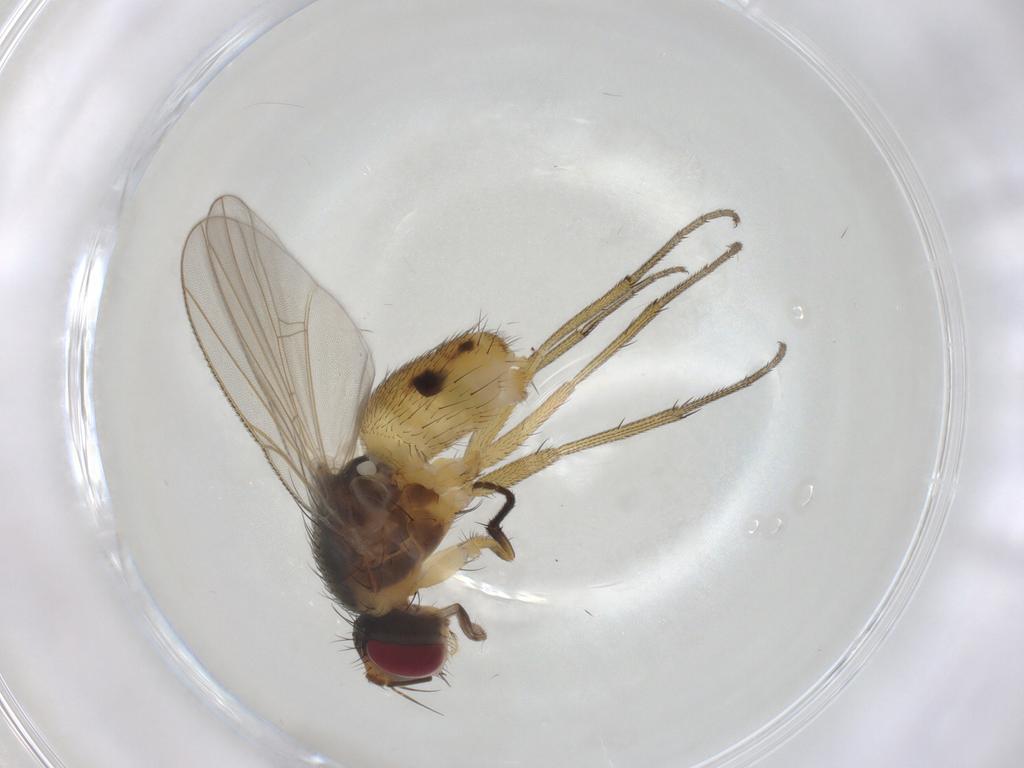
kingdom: Animalia
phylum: Arthropoda
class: Insecta
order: Diptera
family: Muscidae
